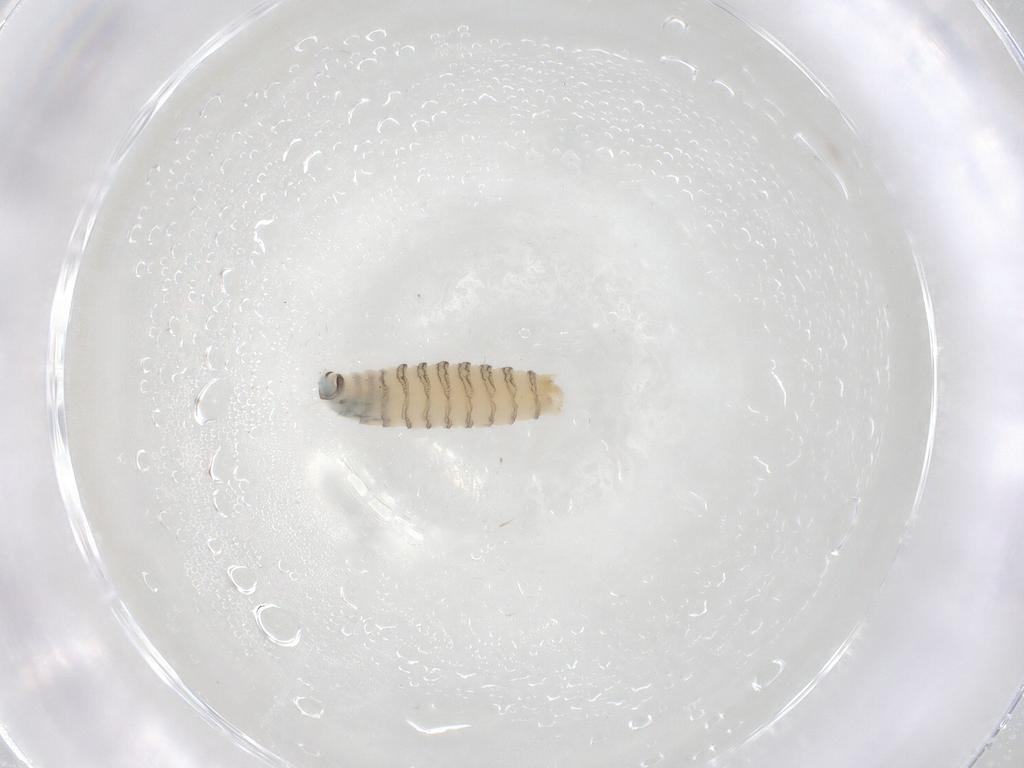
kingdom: Animalia
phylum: Arthropoda
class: Insecta
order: Diptera
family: Sarcophagidae
